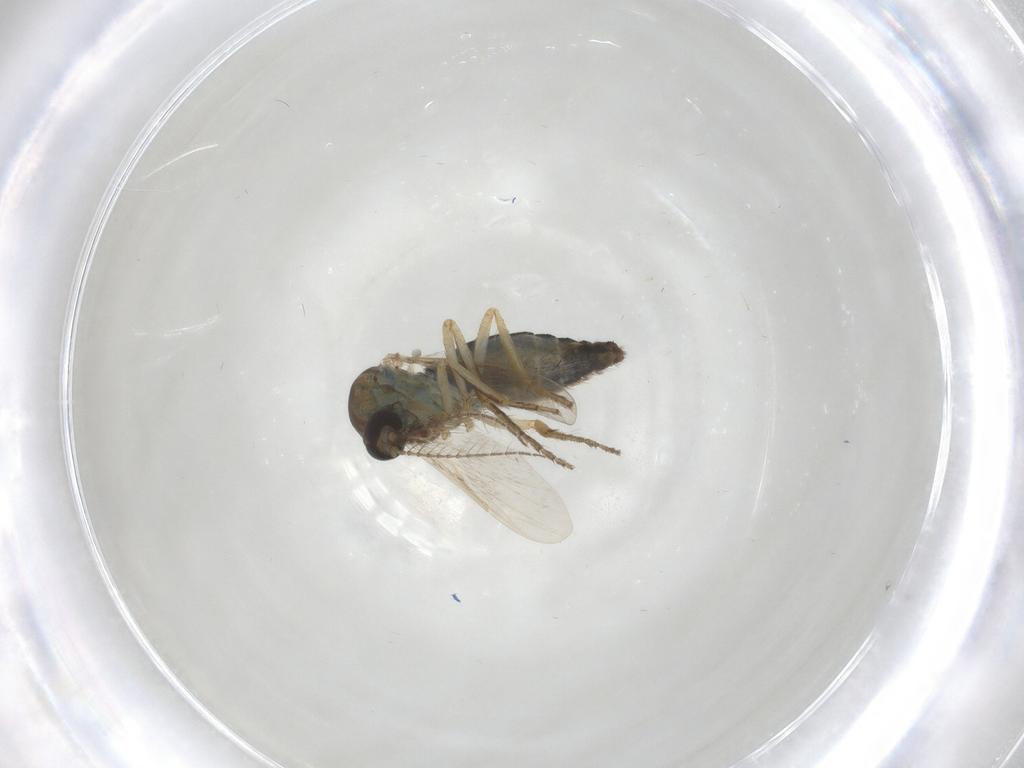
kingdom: Animalia
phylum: Arthropoda
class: Insecta
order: Diptera
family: Ceratopogonidae
